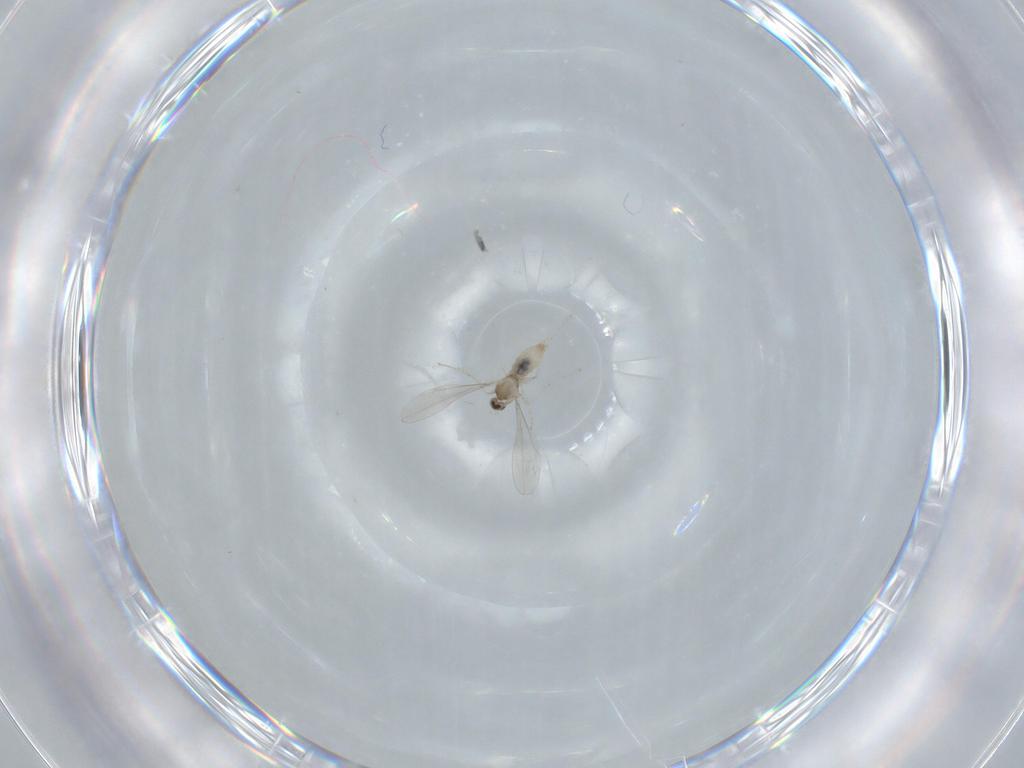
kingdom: Animalia
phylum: Arthropoda
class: Insecta
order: Diptera
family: Cecidomyiidae
